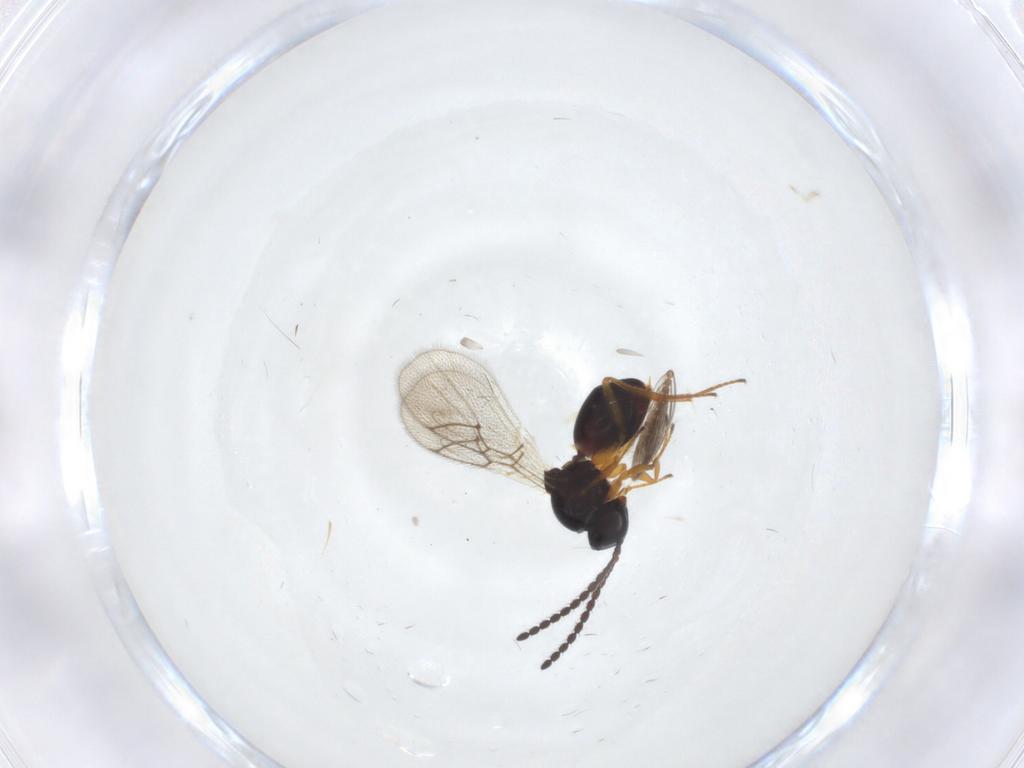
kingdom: Animalia
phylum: Arthropoda
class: Insecta
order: Hymenoptera
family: Figitidae
